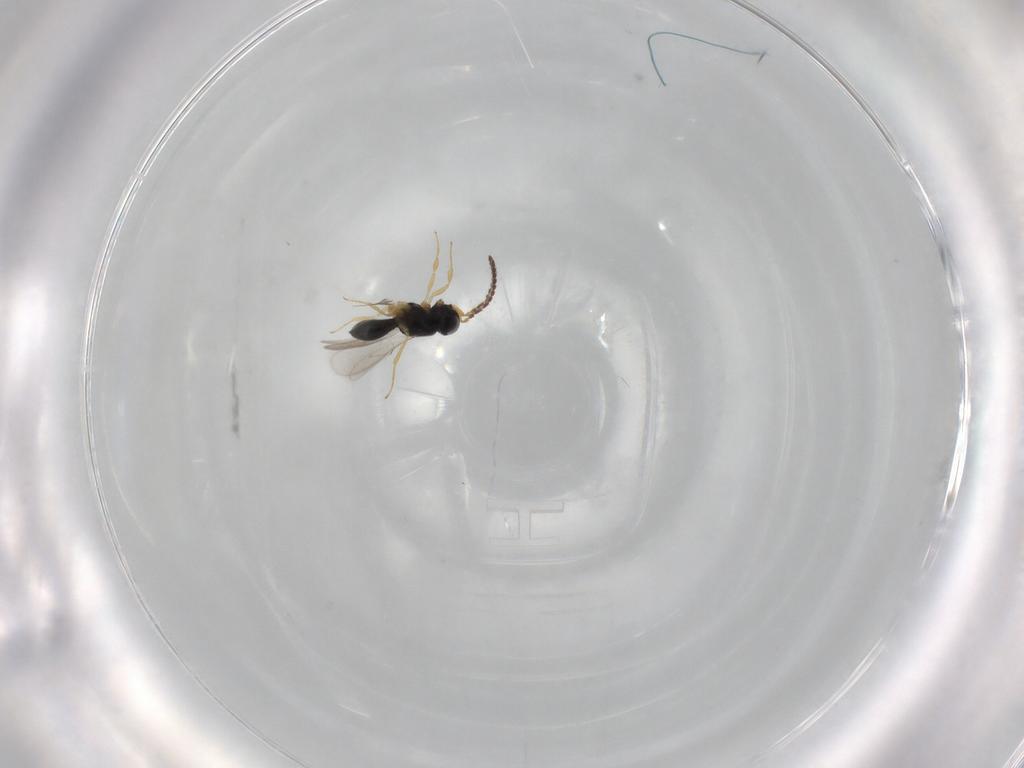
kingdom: Animalia
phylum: Arthropoda
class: Insecta
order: Hymenoptera
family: Scelionidae
